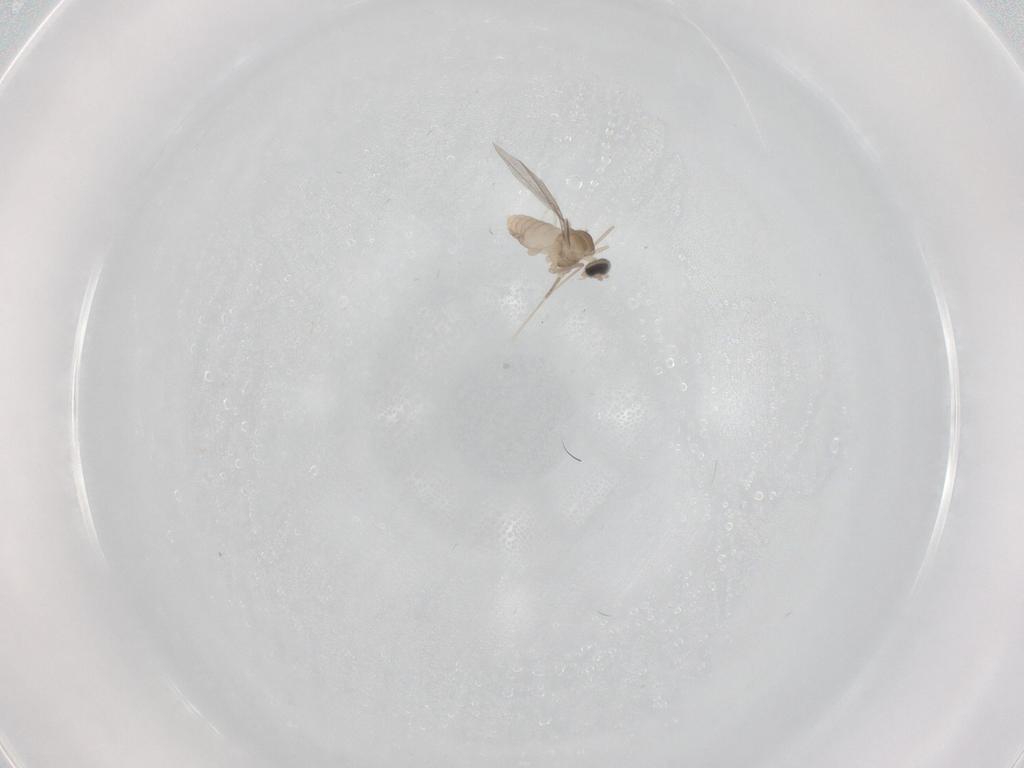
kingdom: Animalia
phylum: Arthropoda
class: Insecta
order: Diptera
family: Cecidomyiidae
